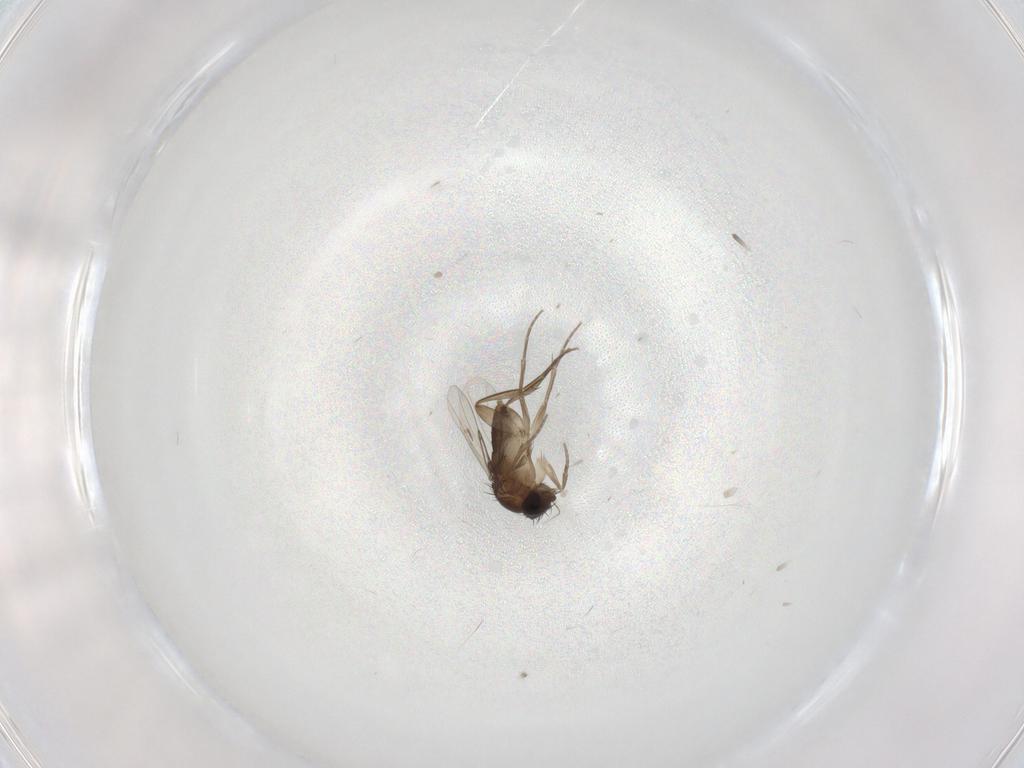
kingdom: Animalia
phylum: Arthropoda
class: Insecta
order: Diptera
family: Phoridae
